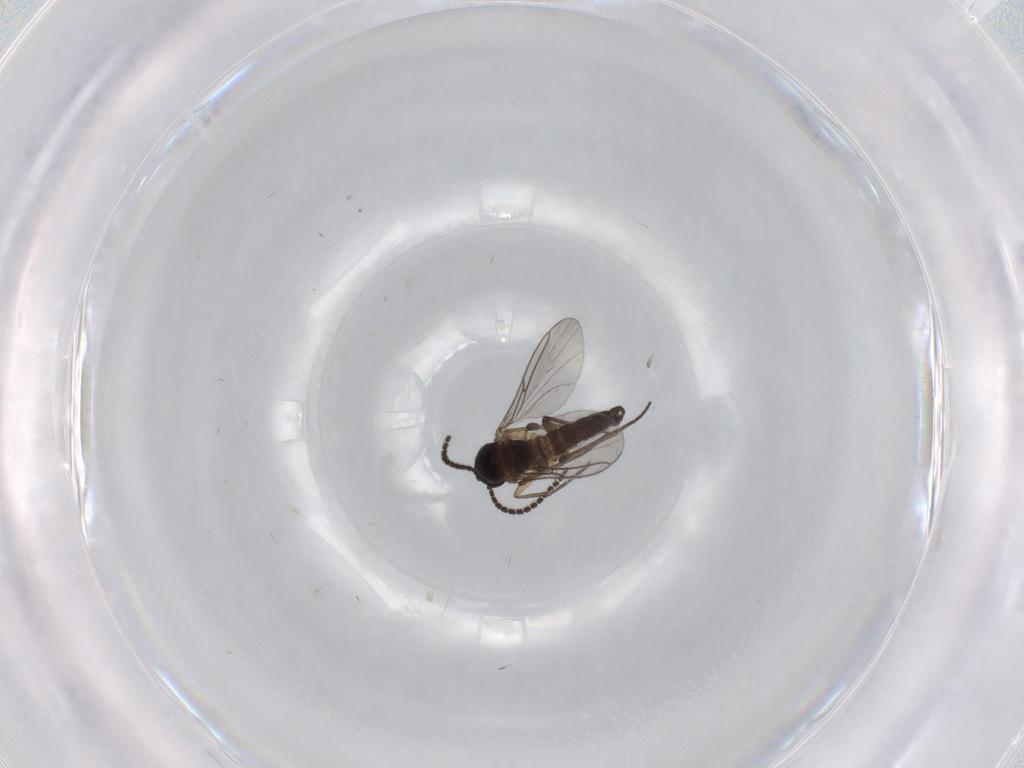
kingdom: Animalia
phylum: Arthropoda
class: Insecta
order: Diptera
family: Sciaridae
